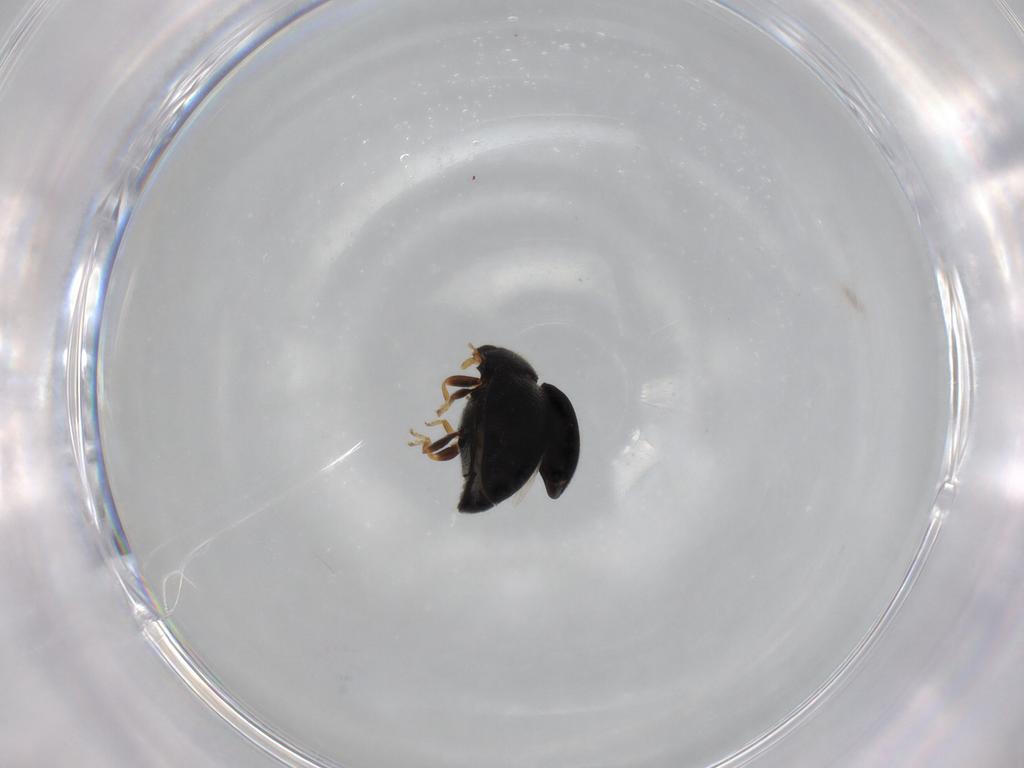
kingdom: Animalia
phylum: Arthropoda
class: Insecta
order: Coleoptera
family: Coccinellidae
